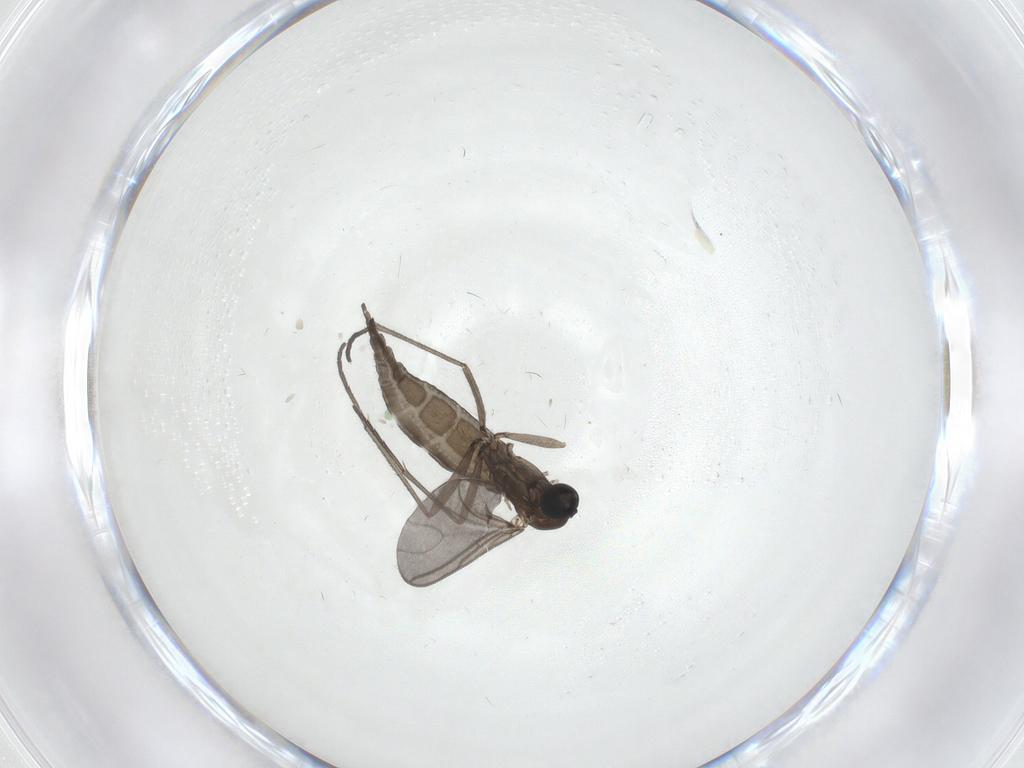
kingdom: Animalia
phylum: Arthropoda
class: Insecta
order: Diptera
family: Sciaridae
